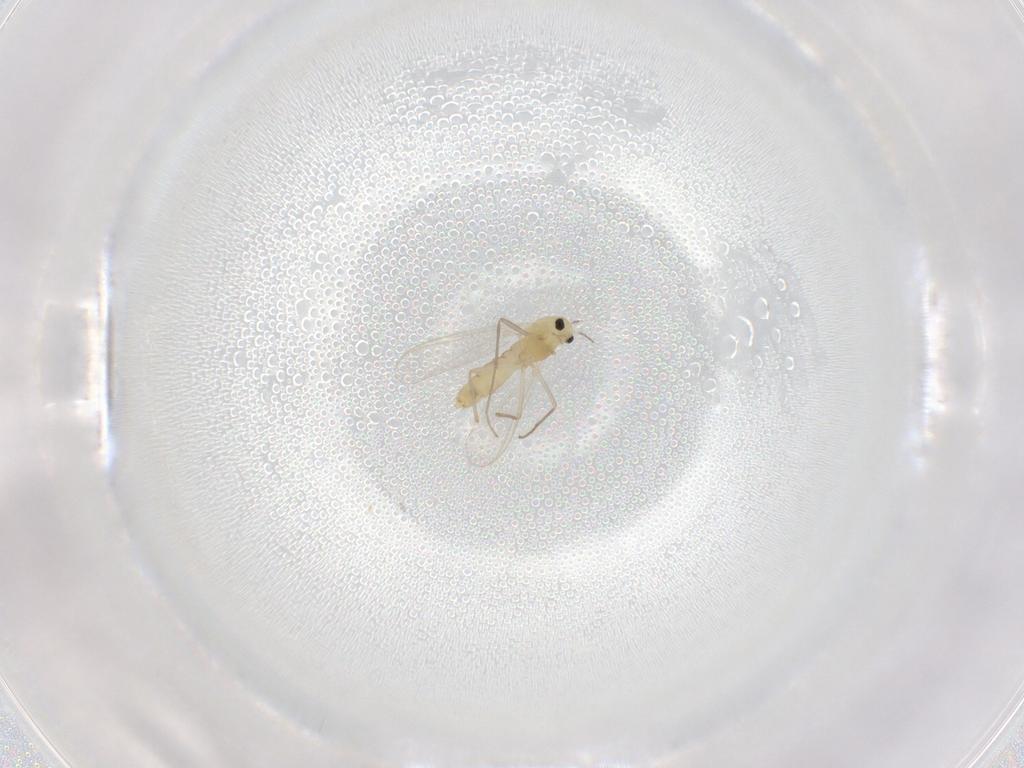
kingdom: Animalia
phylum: Arthropoda
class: Insecta
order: Diptera
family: Chironomidae
